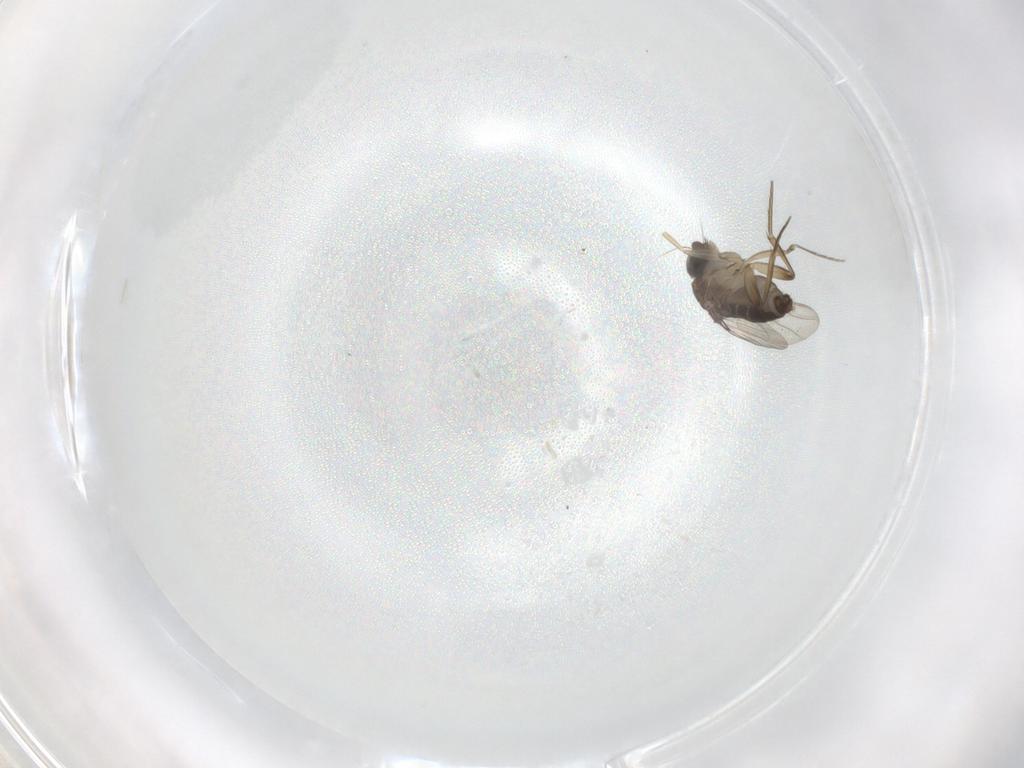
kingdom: Animalia
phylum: Arthropoda
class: Insecta
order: Diptera
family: Phoridae
